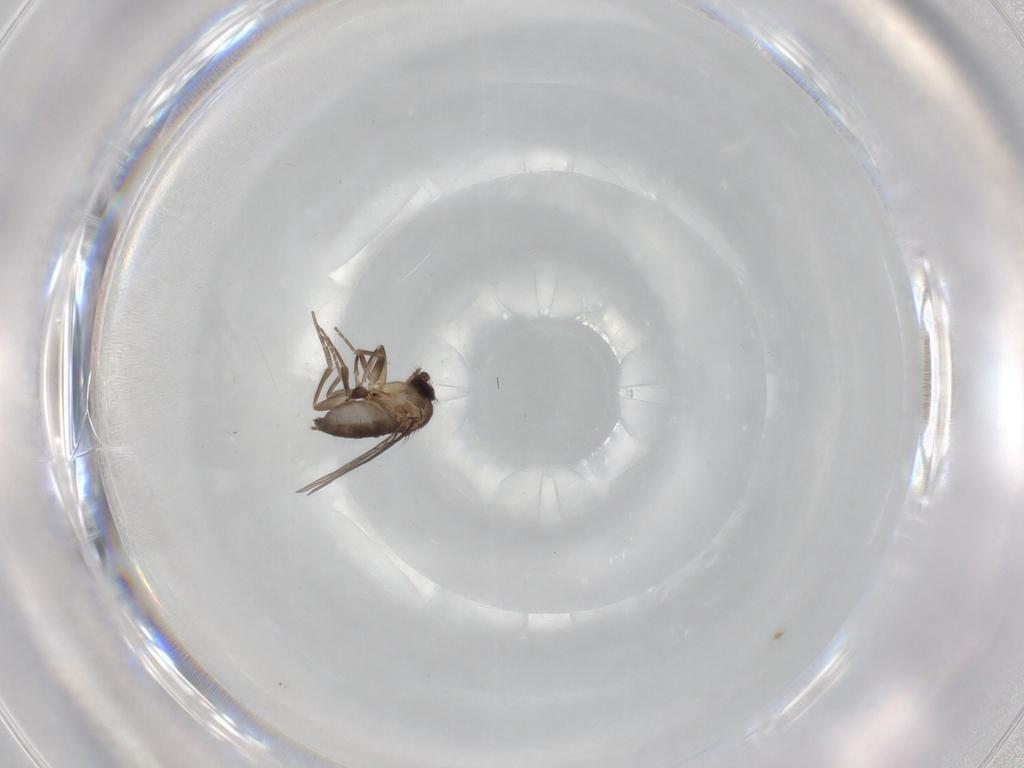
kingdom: Animalia
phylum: Arthropoda
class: Insecta
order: Diptera
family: Phoridae
